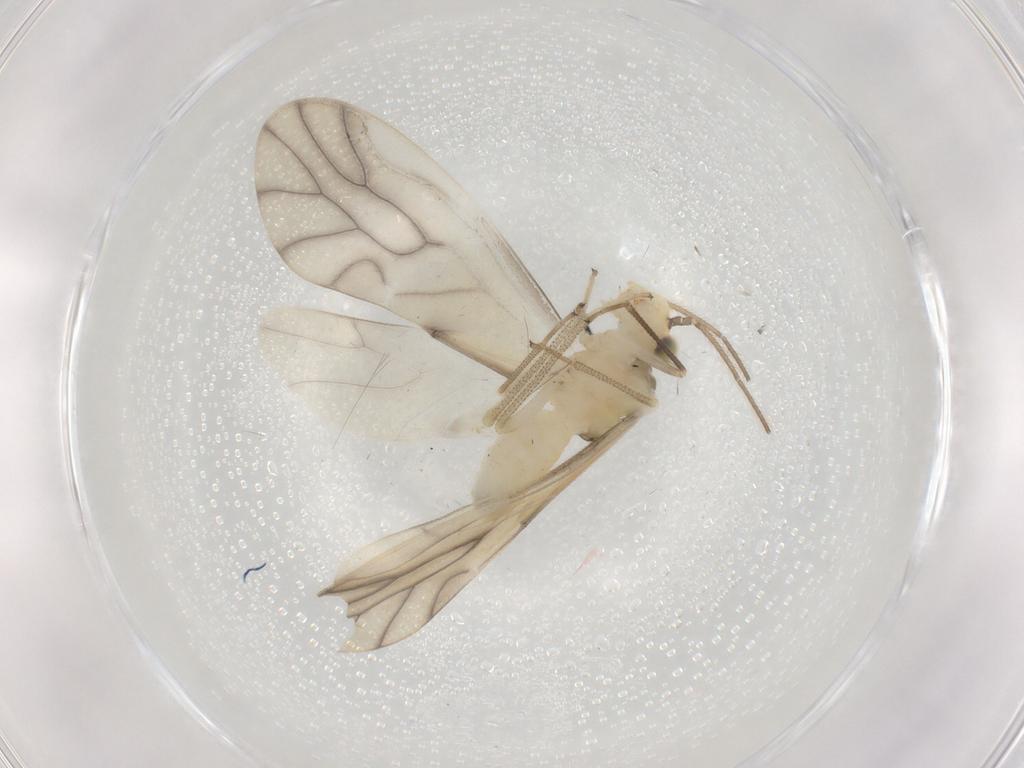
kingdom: Animalia
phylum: Arthropoda
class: Insecta
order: Psocodea
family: Caeciliusidae
